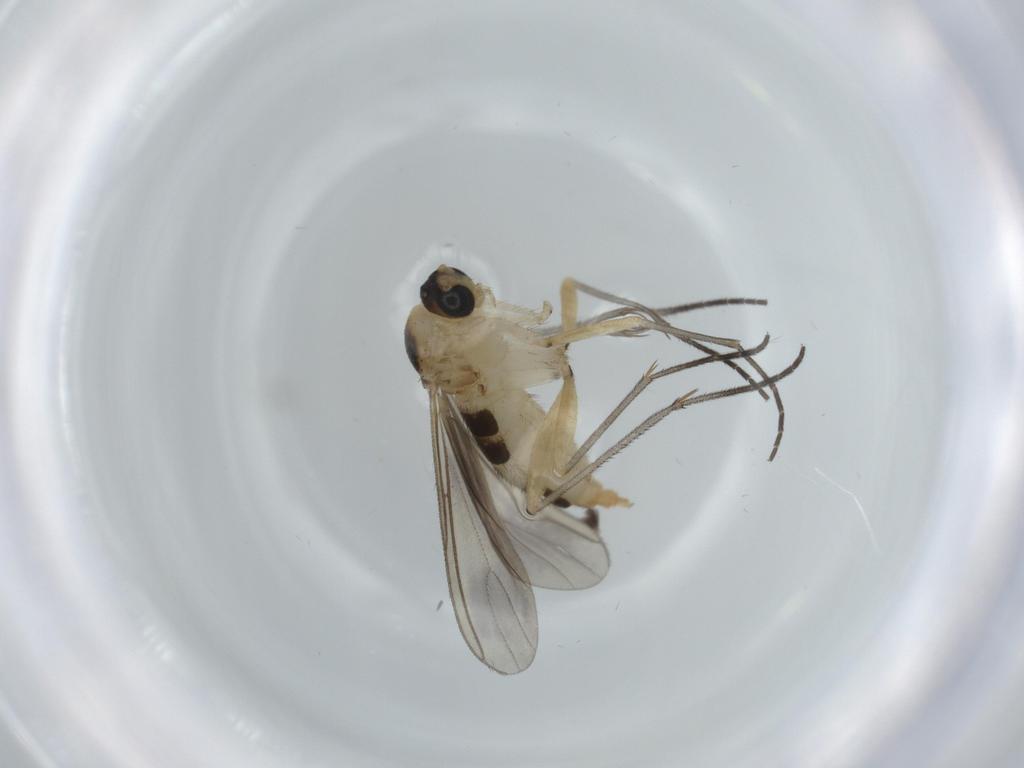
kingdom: Animalia
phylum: Arthropoda
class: Insecta
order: Diptera
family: Sciaridae
